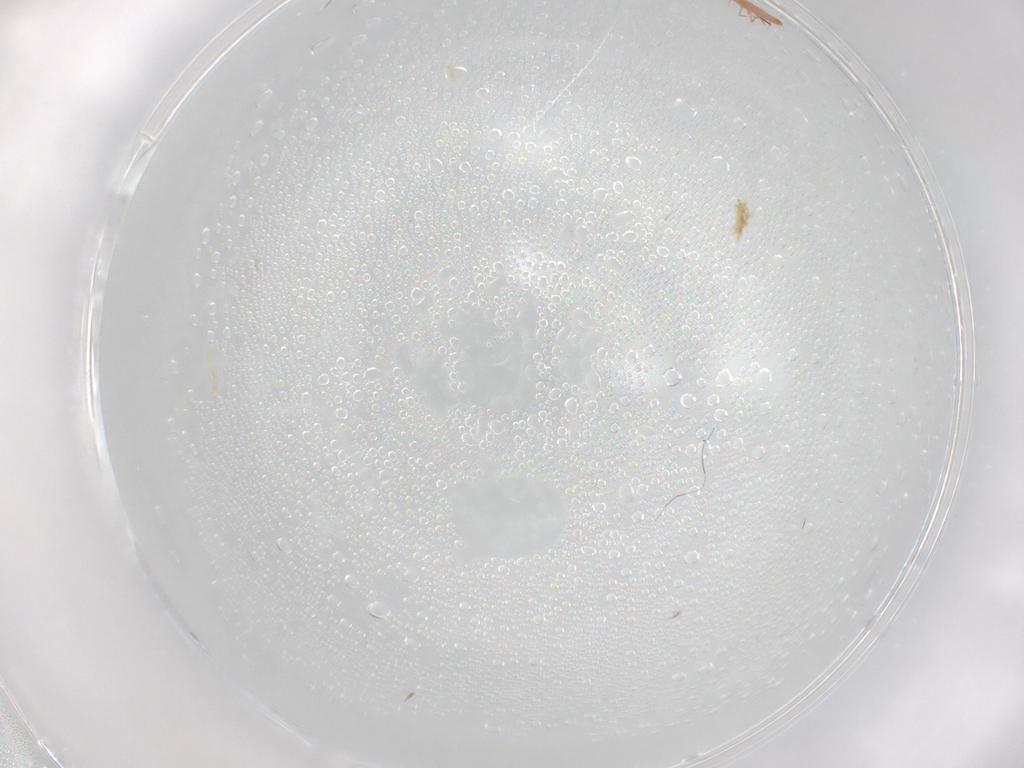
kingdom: Animalia
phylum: Arthropoda
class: Insecta
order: Diptera
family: Chironomidae
